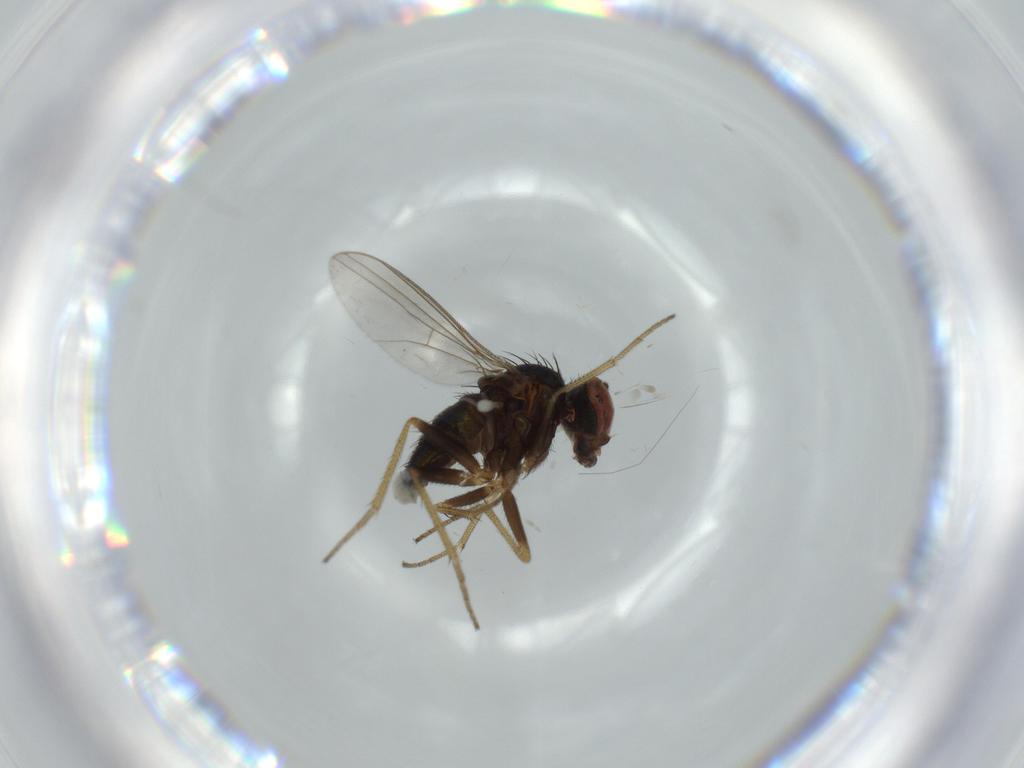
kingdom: Animalia
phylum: Arthropoda
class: Insecta
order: Diptera
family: Dolichopodidae
